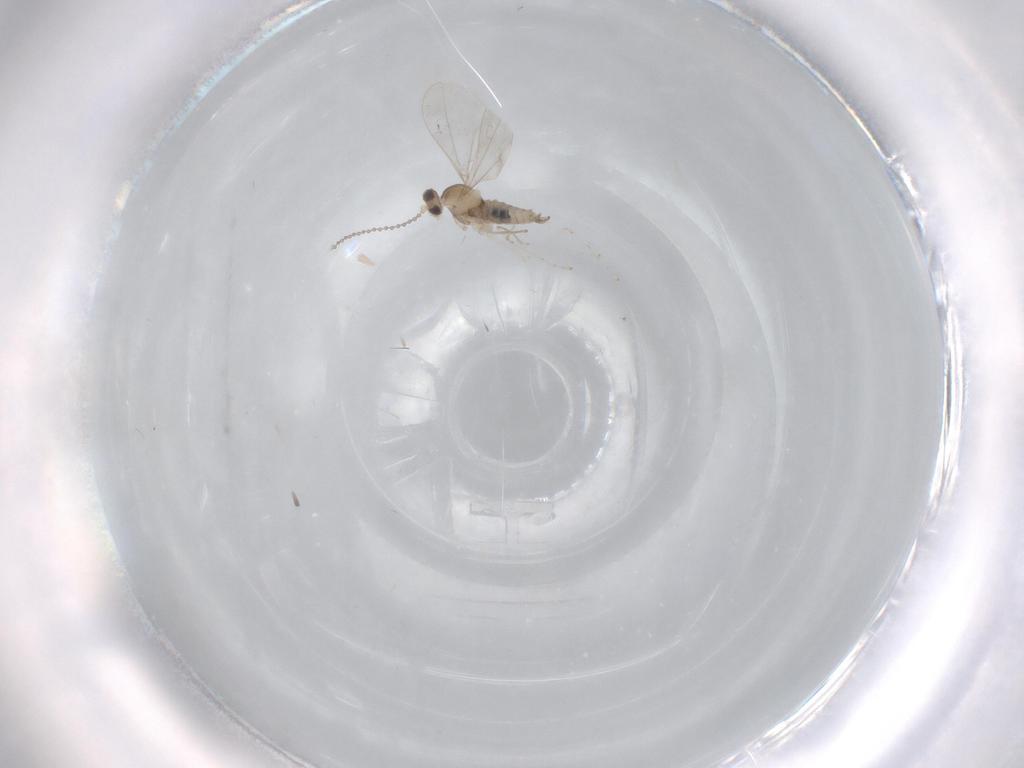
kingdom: Animalia
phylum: Arthropoda
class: Insecta
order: Diptera
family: Cecidomyiidae
